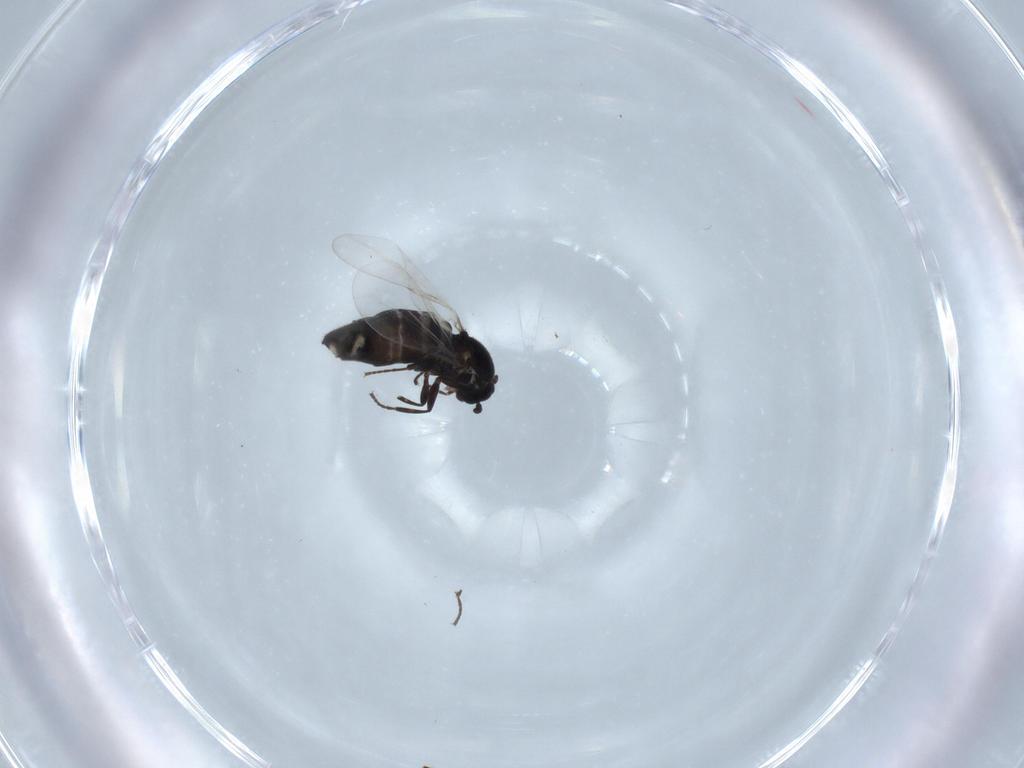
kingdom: Animalia
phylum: Arthropoda
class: Insecta
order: Diptera
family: Scatopsidae
